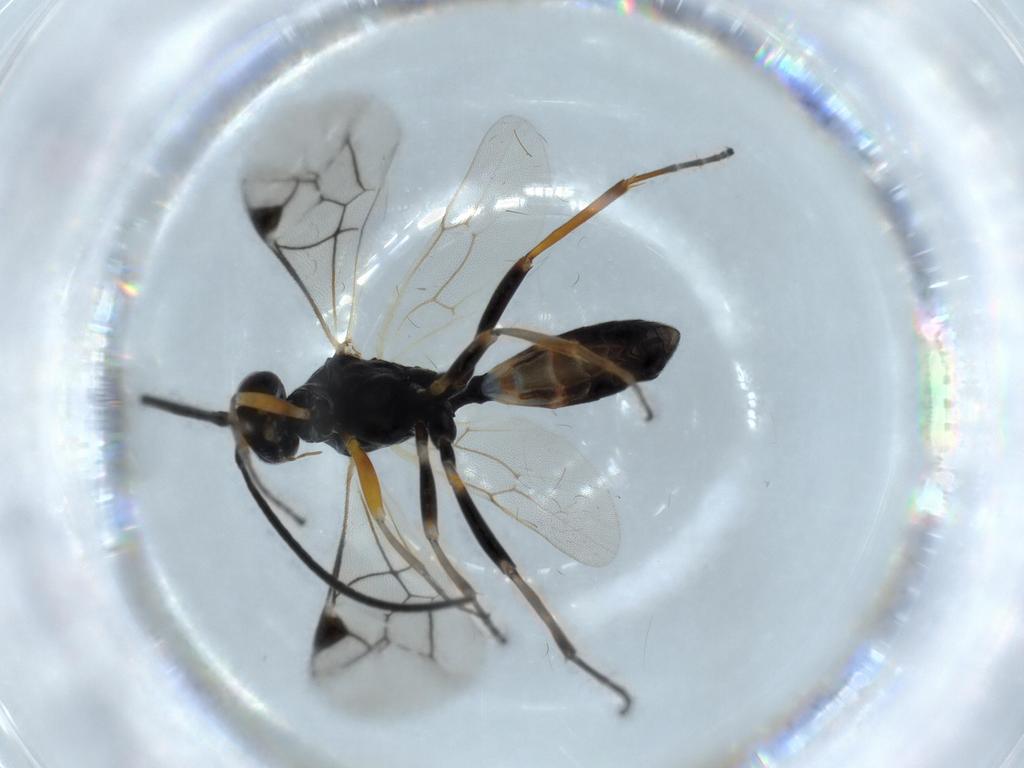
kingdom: Animalia
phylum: Arthropoda
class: Insecta
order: Hymenoptera
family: Ichneumonidae
